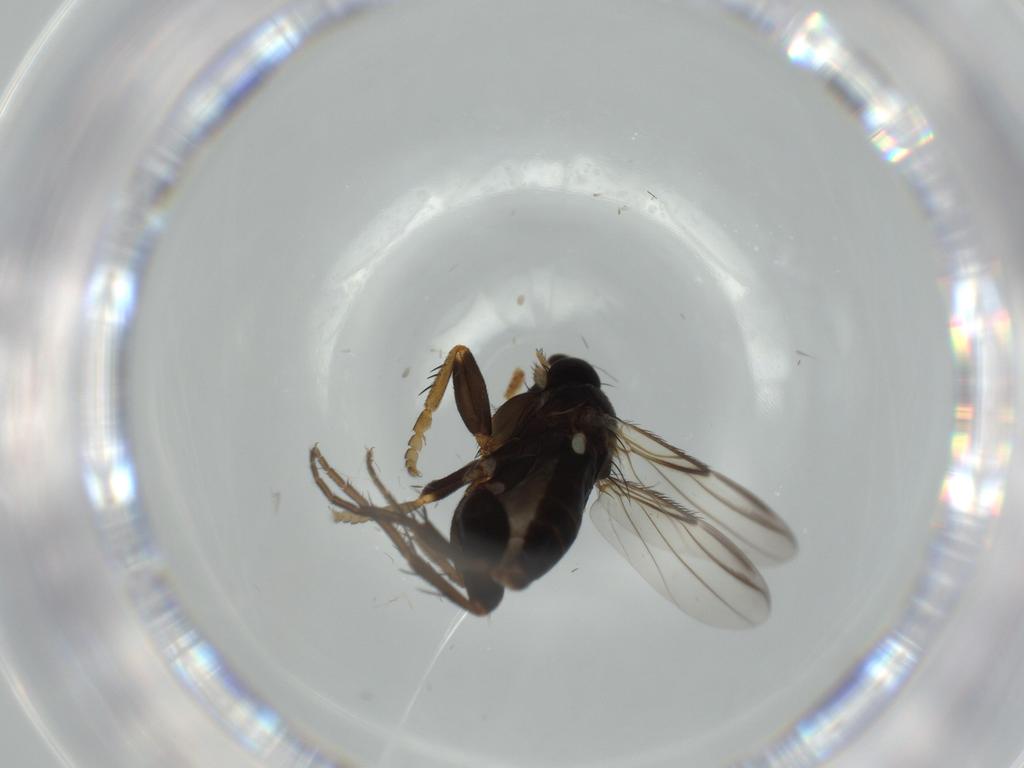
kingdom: Animalia
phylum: Arthropoda
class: Insecta
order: Diptera
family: Phoridae
